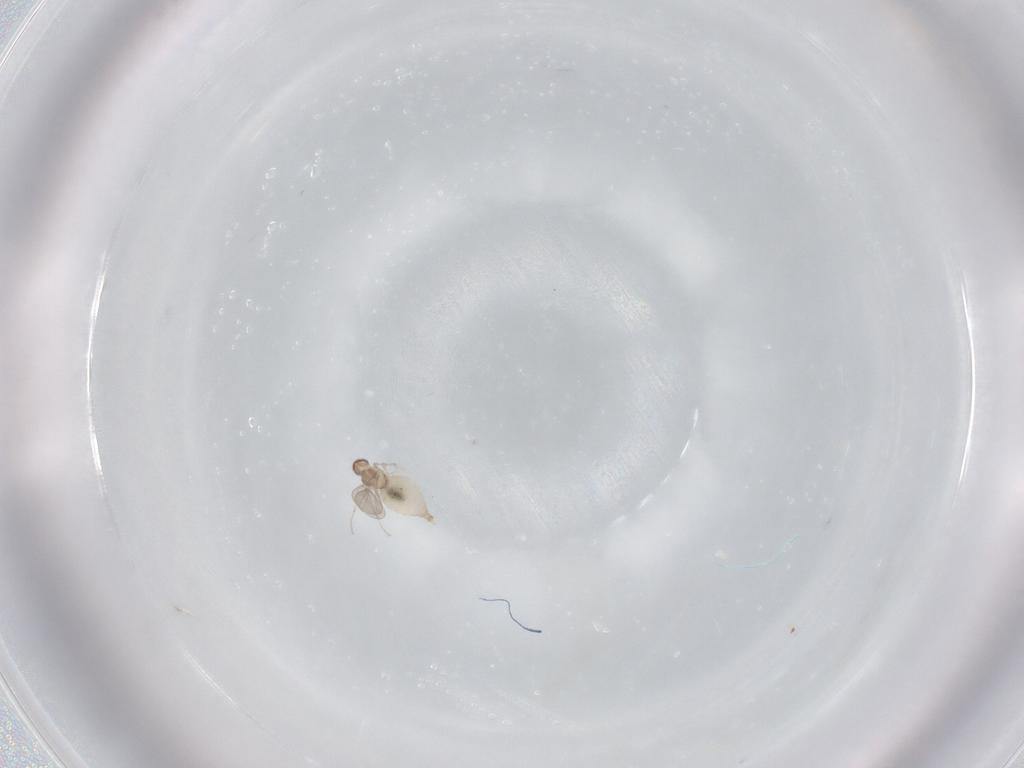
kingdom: Animalia
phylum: Arthropoda
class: Insecta
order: Diptera
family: Cecidomyiidae
